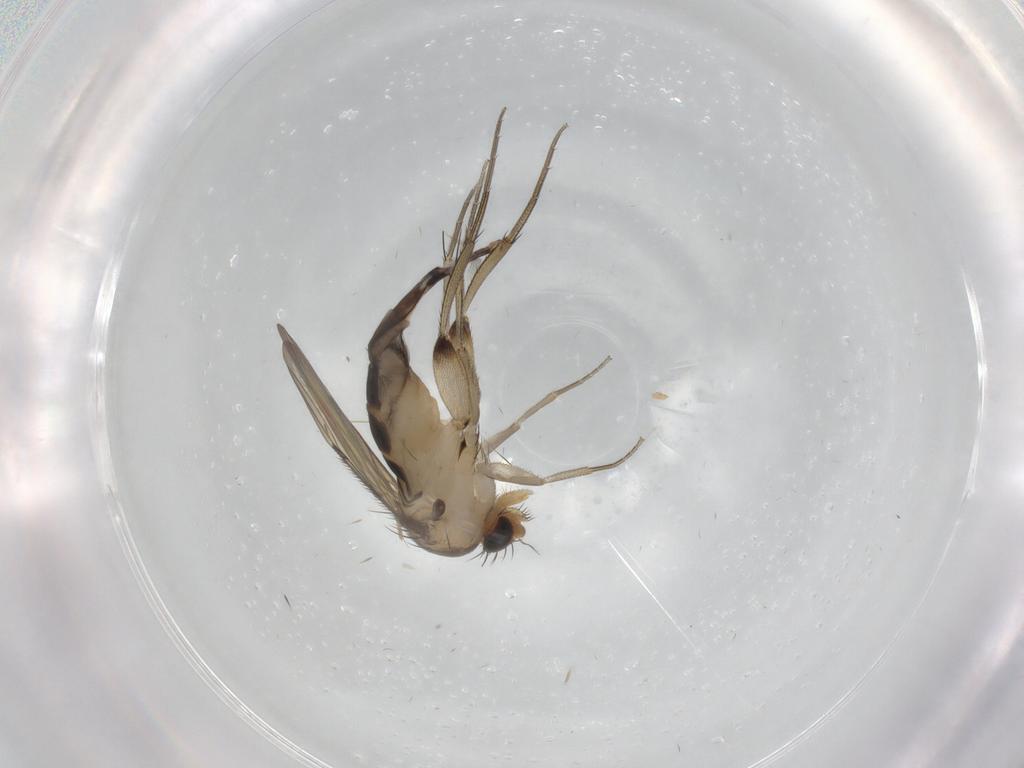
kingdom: Animalia
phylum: Arthropoda
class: Insecta
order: Diptera
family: Phoridae
